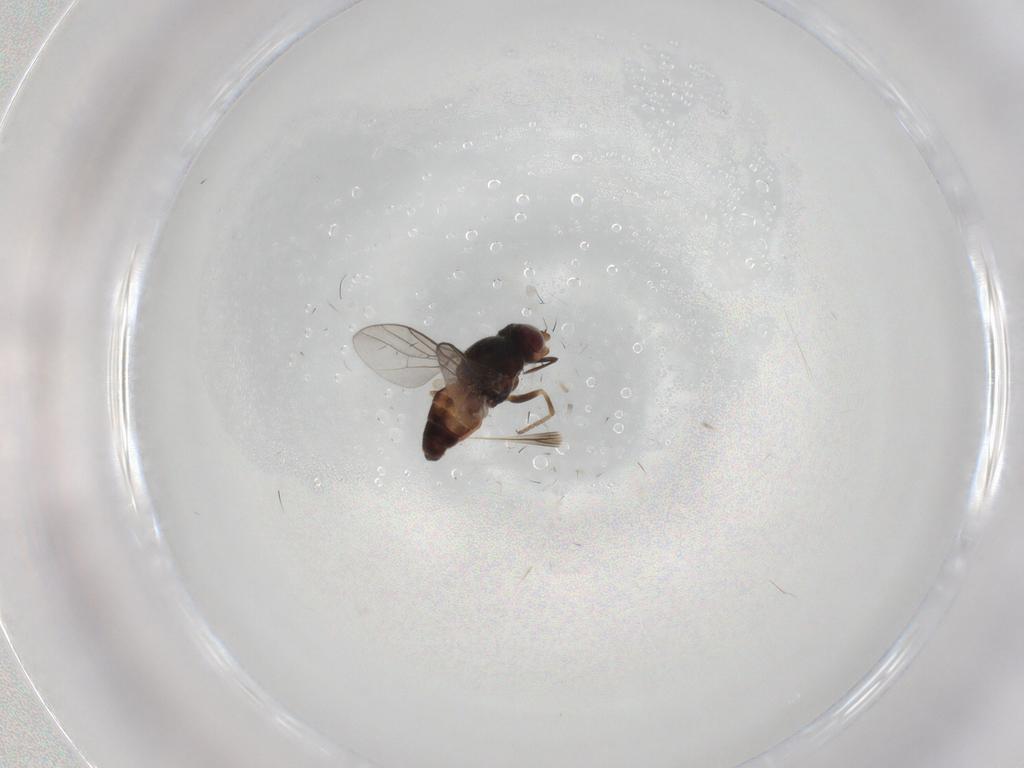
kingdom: Animalia
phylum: Arthropoda
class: Insecta
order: Diptera
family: Chloropidae
